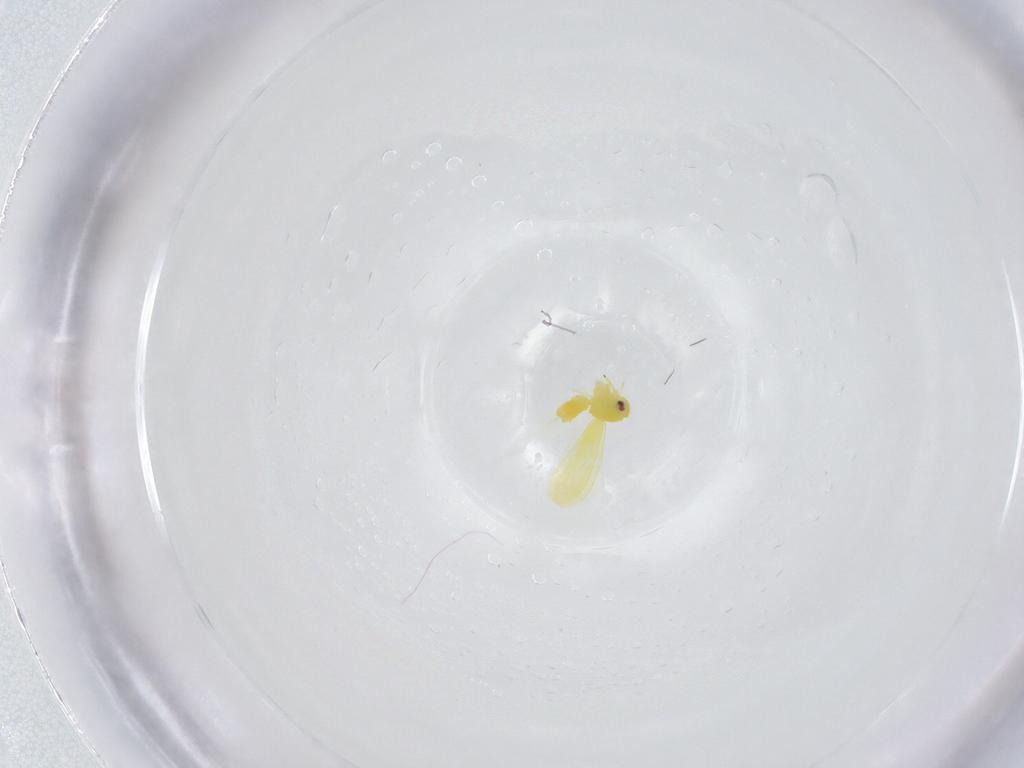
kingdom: Animalia
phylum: Arthropoda
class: Insecta
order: Hemiptera
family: Aleyrodidae
